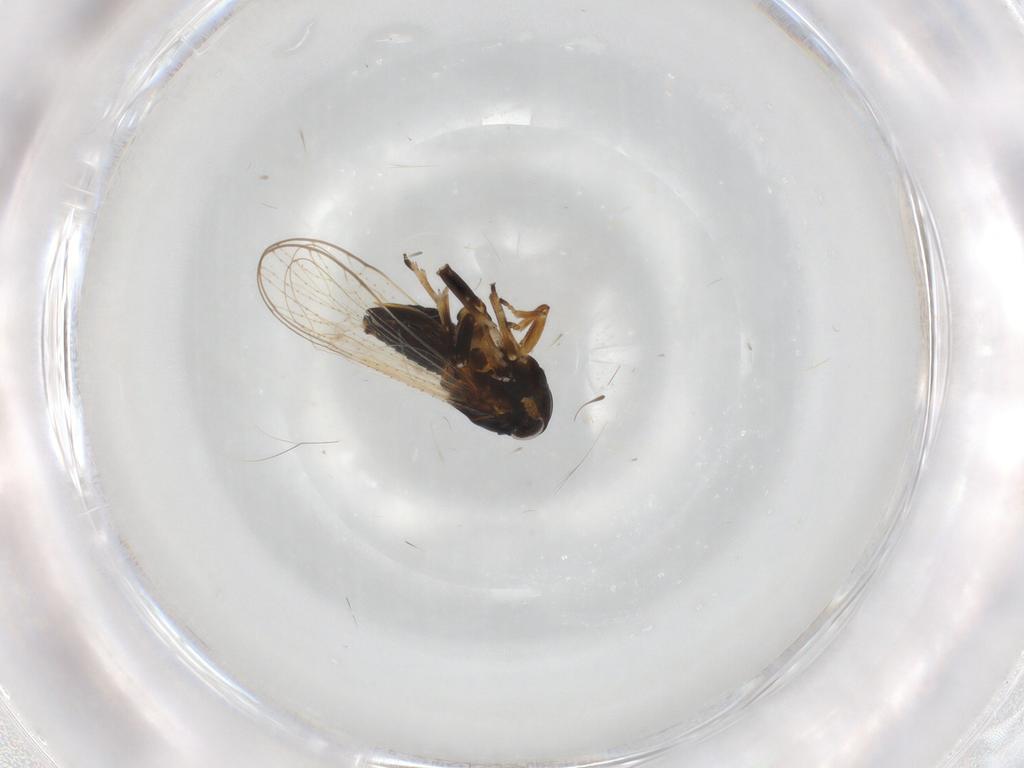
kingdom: Animalia
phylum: Arthropoda
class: Insecta
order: Hemiptera
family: Delphacidae
